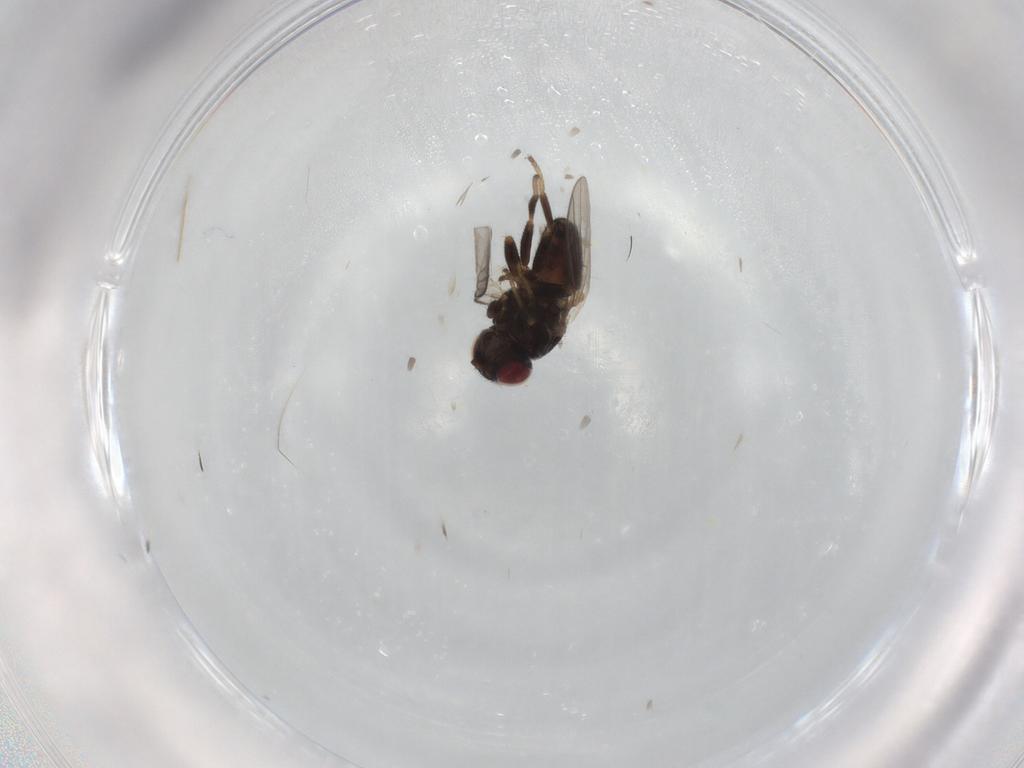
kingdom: Animalia
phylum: Arthropoda
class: Insecta
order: Diptera
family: Chloropidae
